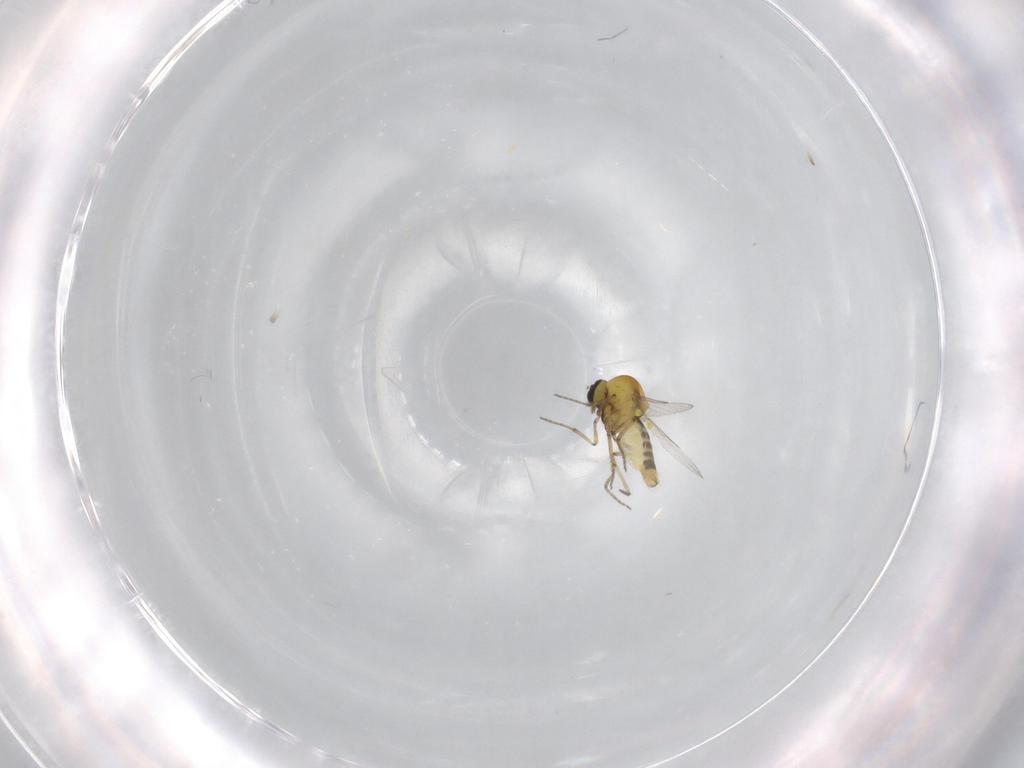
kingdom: Animalia
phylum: Arthropoda
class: Insecta
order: Diptera
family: Ceratopogonidae
